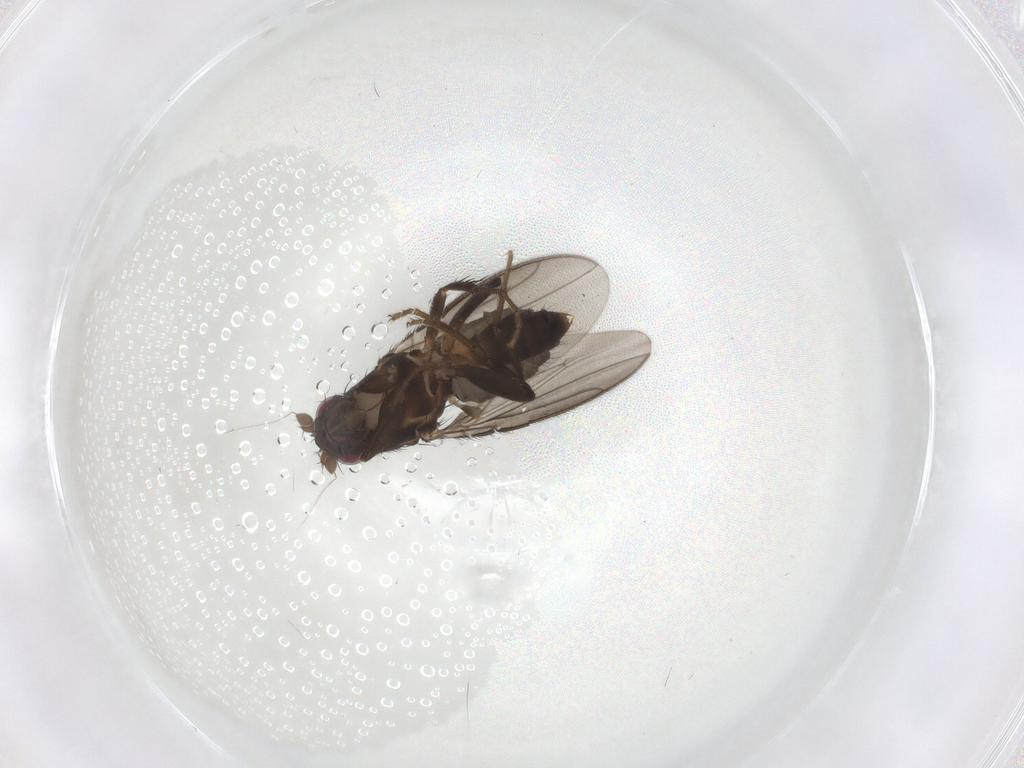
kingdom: Animalia
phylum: Arthropoda
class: Insecta
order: Diptera
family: Sphaeroceridae
